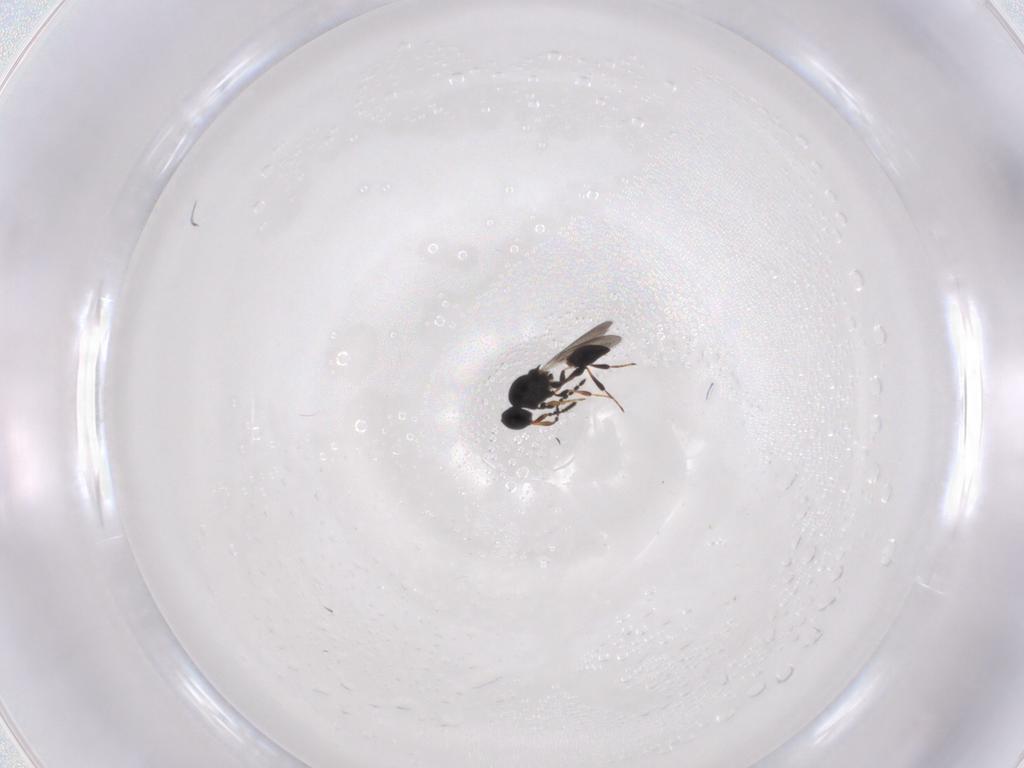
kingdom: Animalia
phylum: Arthropoda
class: Insecta
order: Hymenoptera
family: Platygastridae
